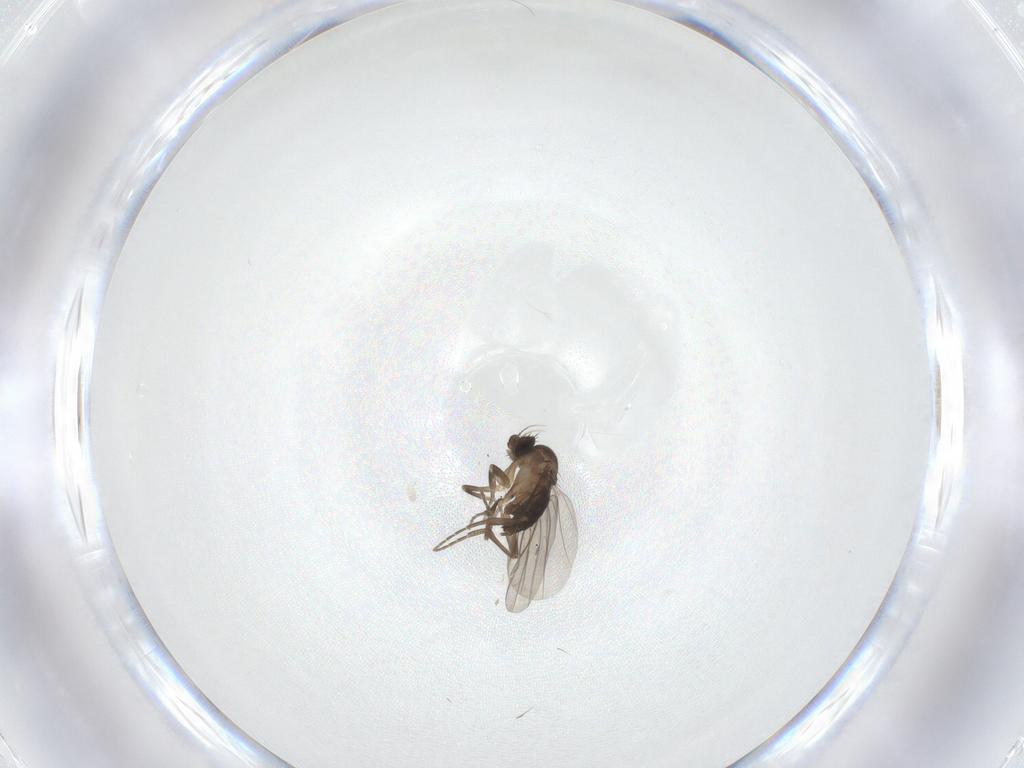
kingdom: Animalia
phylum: Arthropoda
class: Insecta
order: Diptera
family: Phoridae
